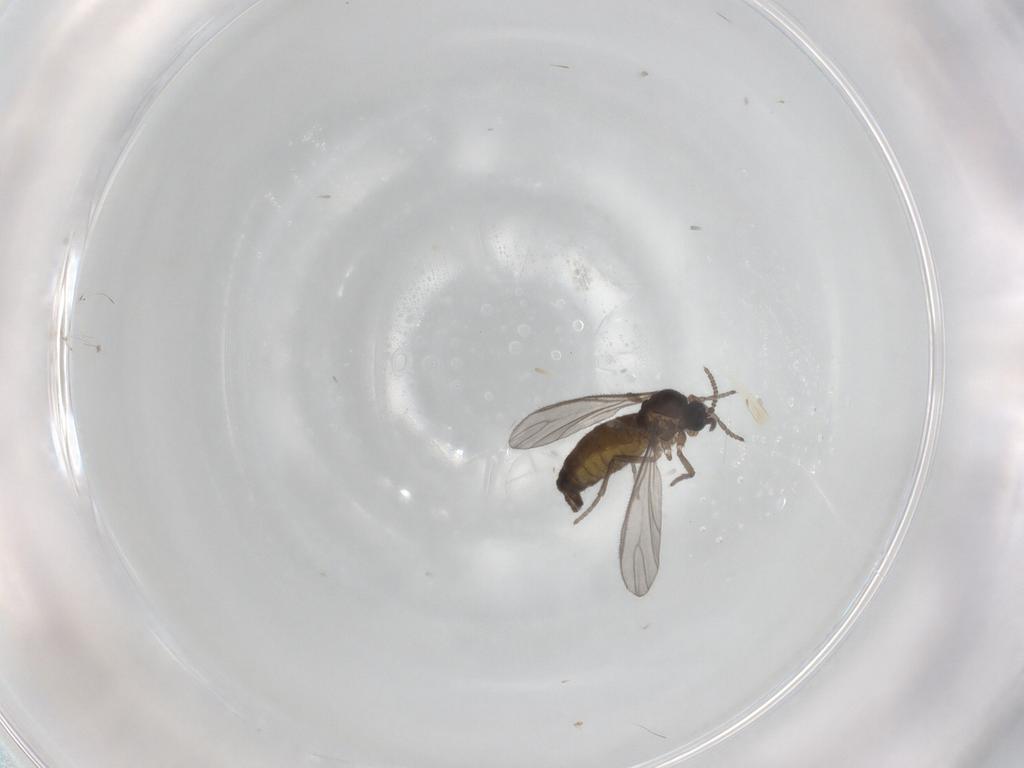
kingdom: Animalia
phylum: Arthropoda
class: Insecta
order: Diptera
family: Sciaridae
